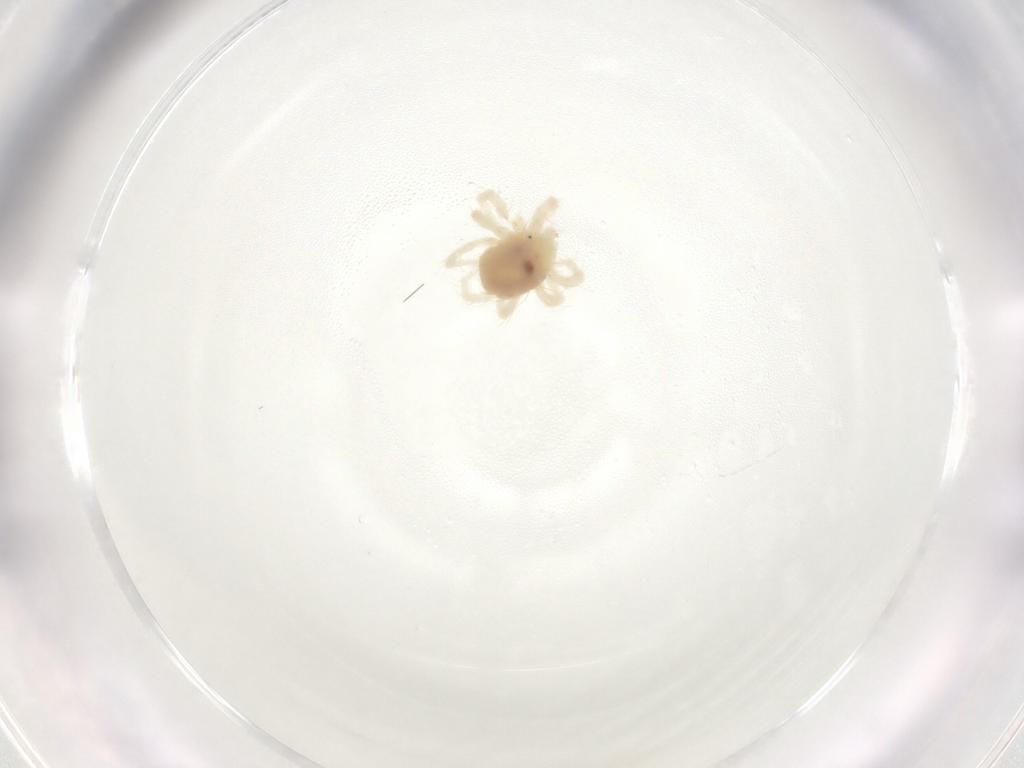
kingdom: Animalia
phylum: Arthropoda
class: Arachnida
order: Trombidiformes
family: Anystidae
